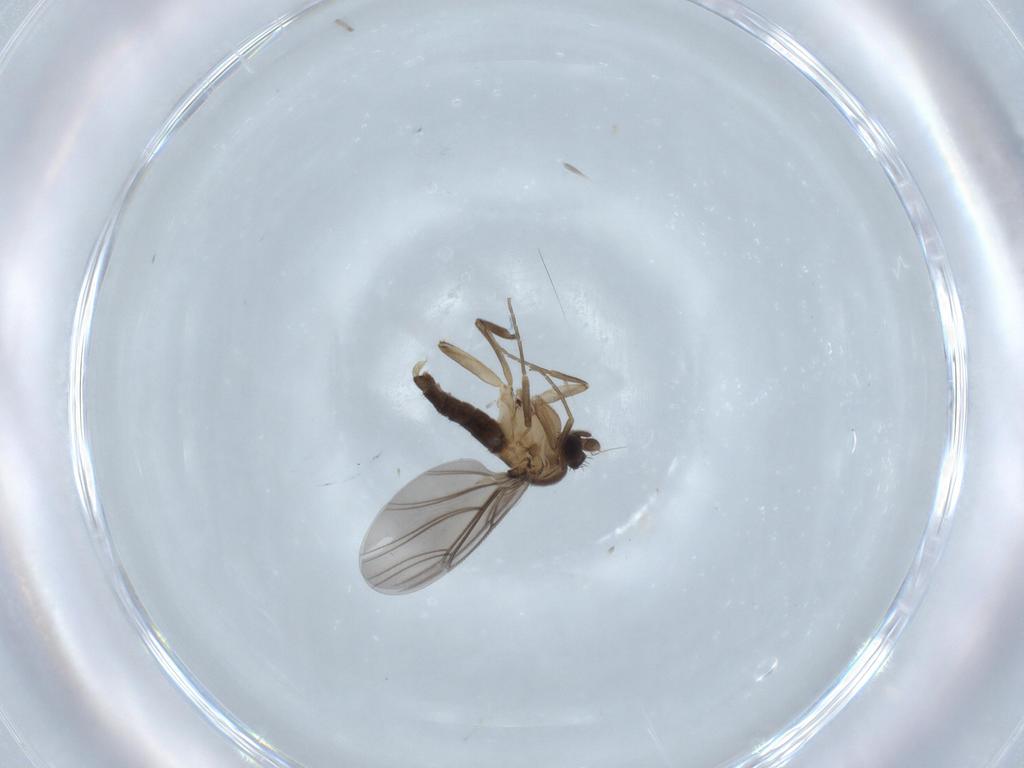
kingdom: Animalia
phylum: Arthropoda
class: Insecta
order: Diptera
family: Phoridae
